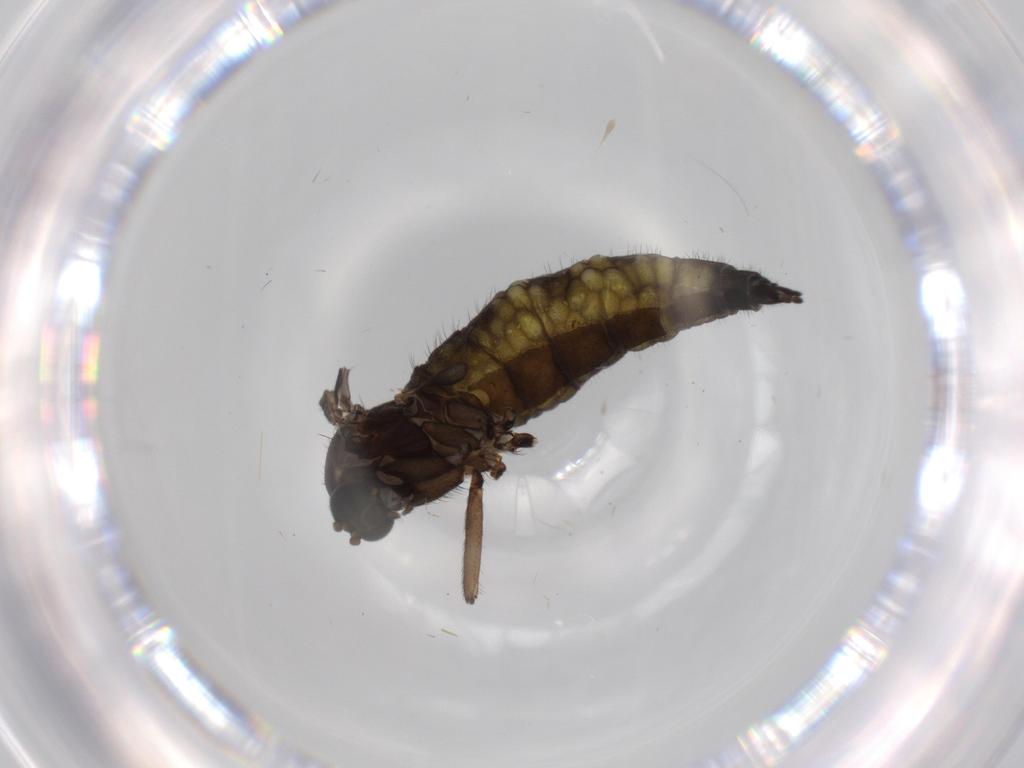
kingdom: Animalia
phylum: Arthropoda
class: Insecta
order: Diptera
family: Sciaridae
